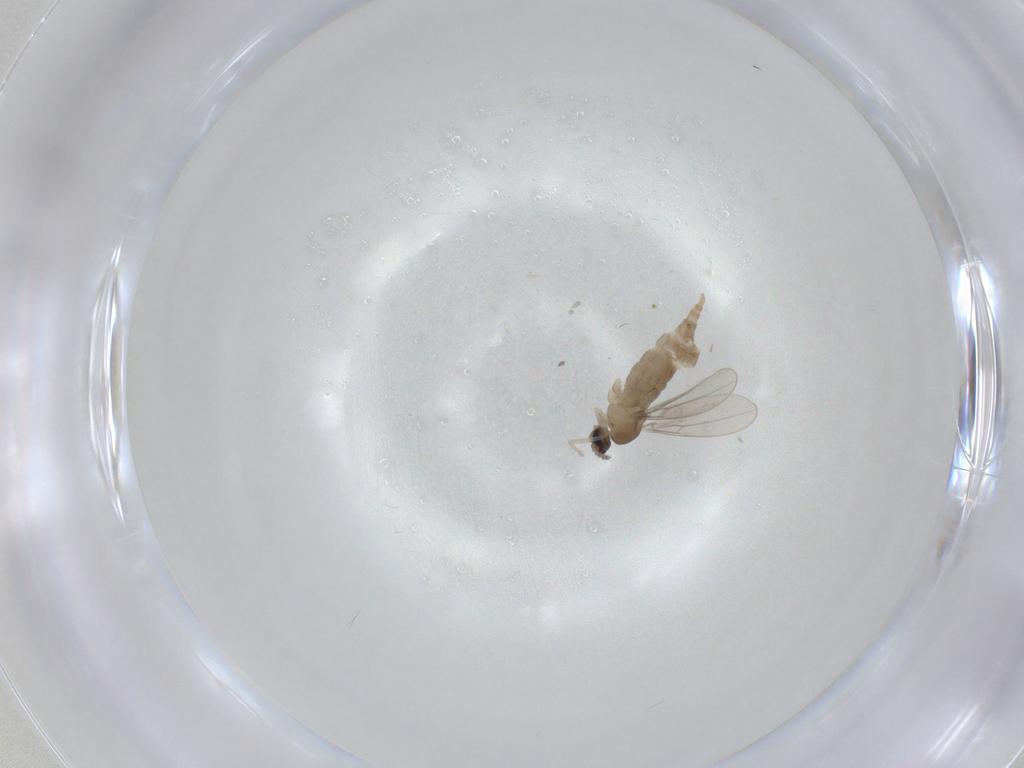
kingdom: Animalia
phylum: Arthropoda
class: Insecta
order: Diptera
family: Cecidomyiidae
